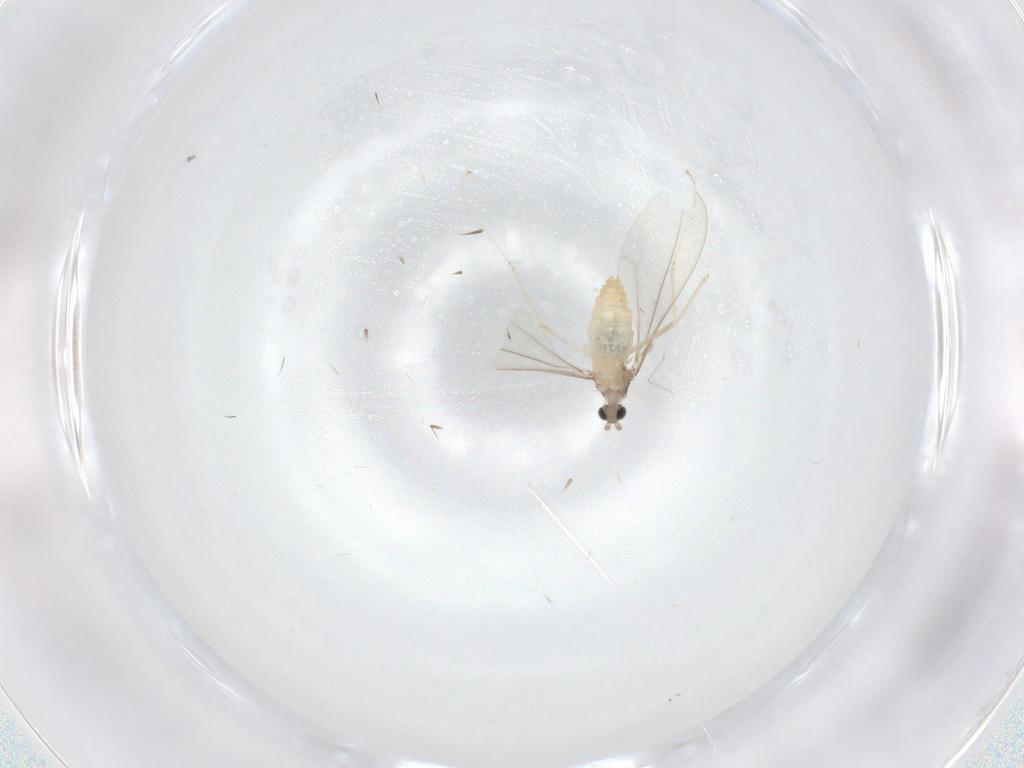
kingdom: Animalia
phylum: Arthropoda
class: Insecta
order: Diptera
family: Cecidomyiidae
